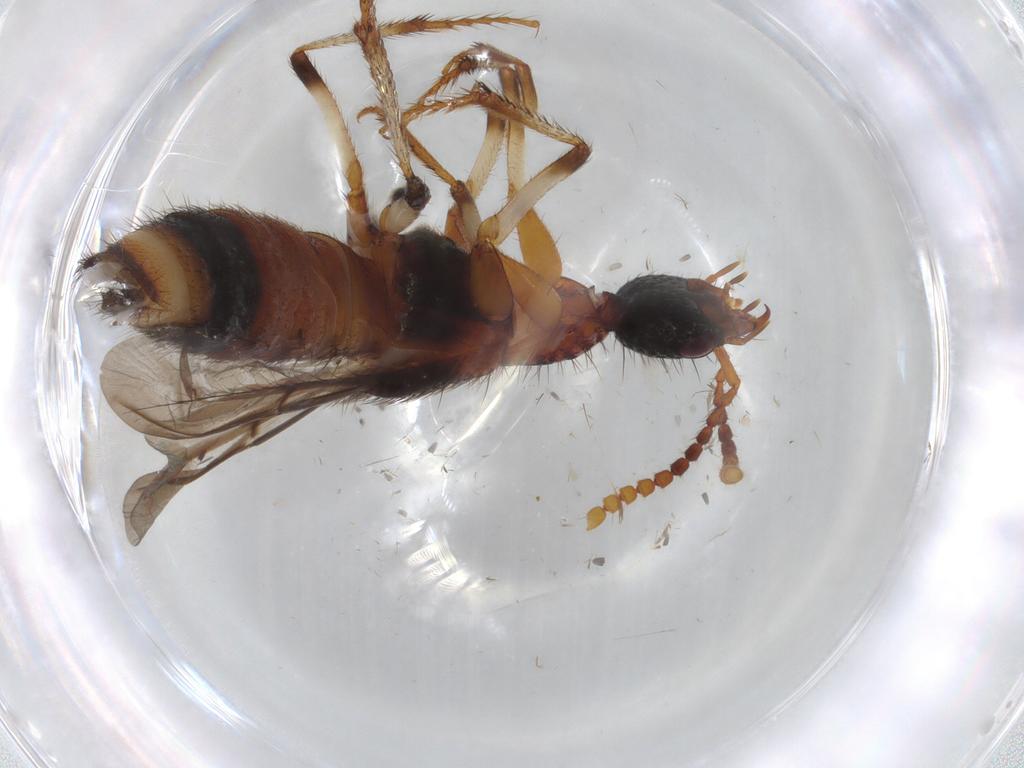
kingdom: Animalia
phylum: Arthropoda
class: Insecta
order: Coleoptera
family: Staphylinidae
